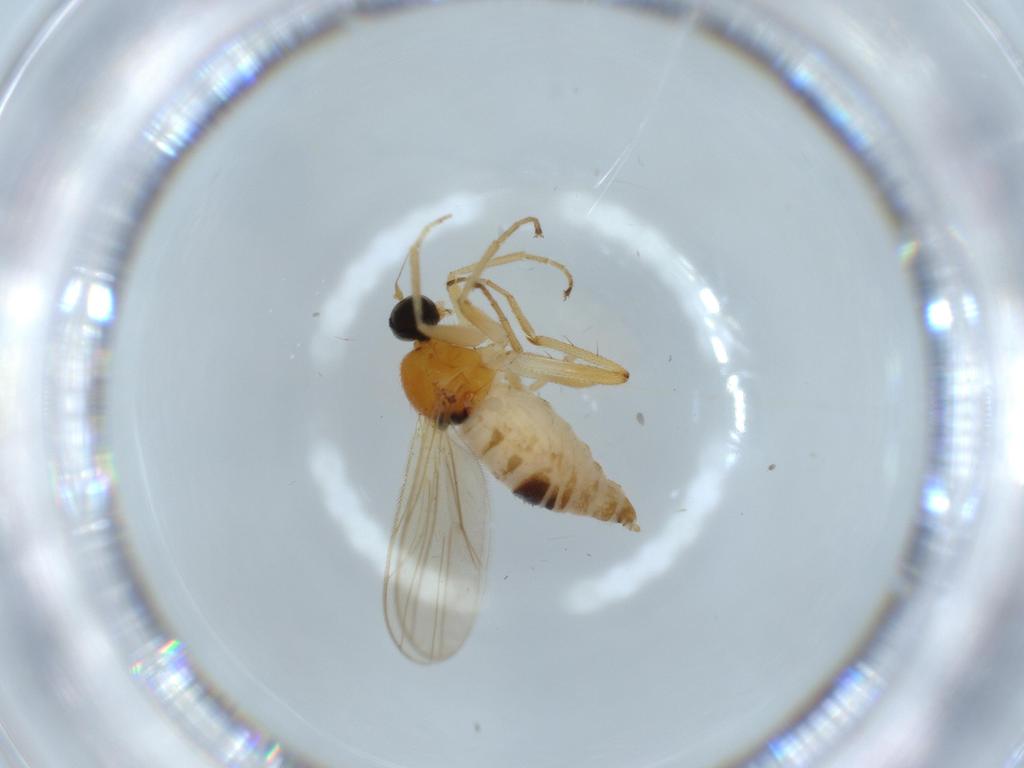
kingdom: Animalia
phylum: Arthropoda
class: Insecta
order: Diptera
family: Hybotidae
